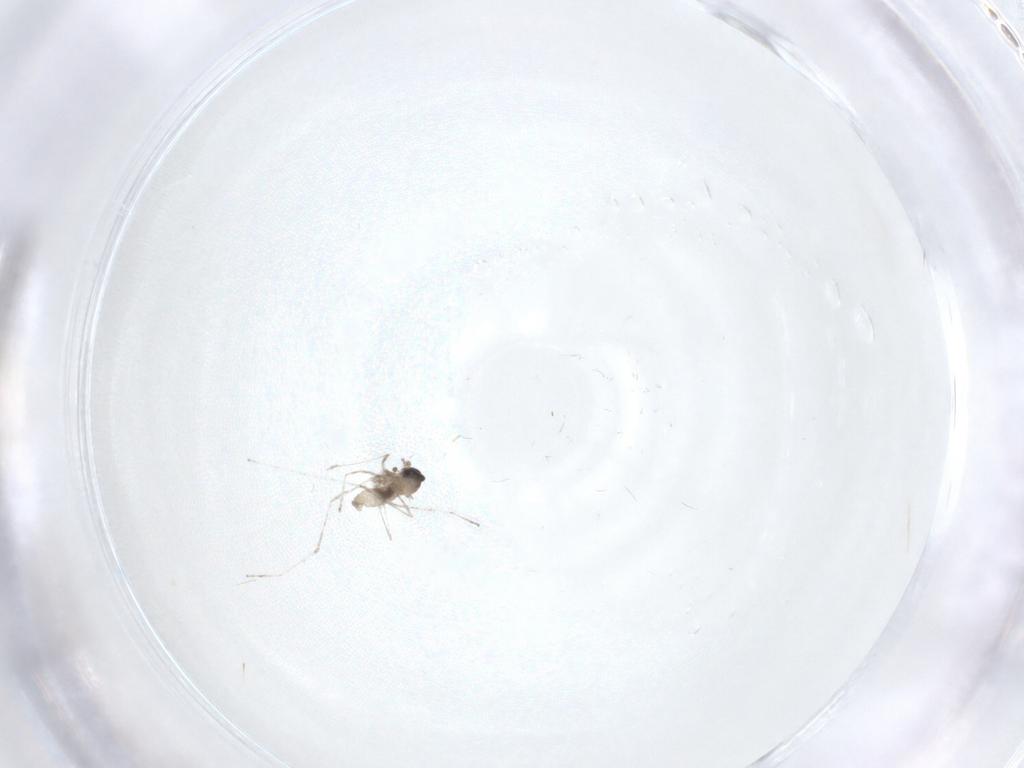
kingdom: Animalia
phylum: Arthropoda
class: Insecta
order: Diptera
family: Cecidomyiidae
